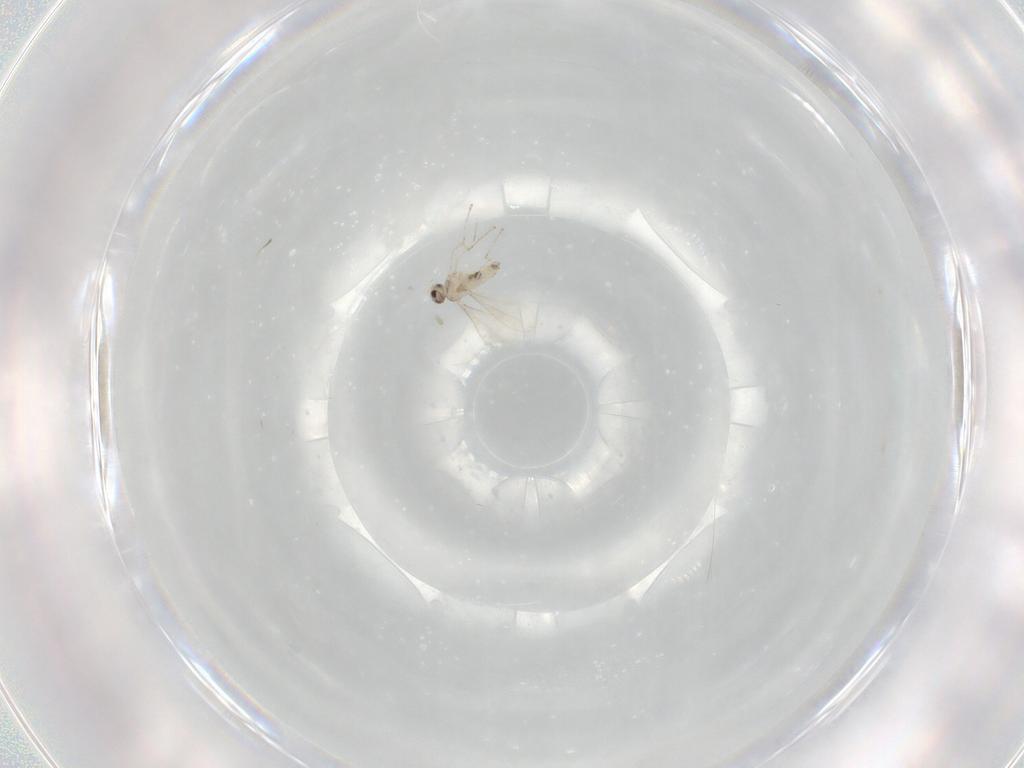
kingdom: Animalia
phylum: Arthropoda
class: Insecta
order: Diptera
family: Cecidomyiidae
